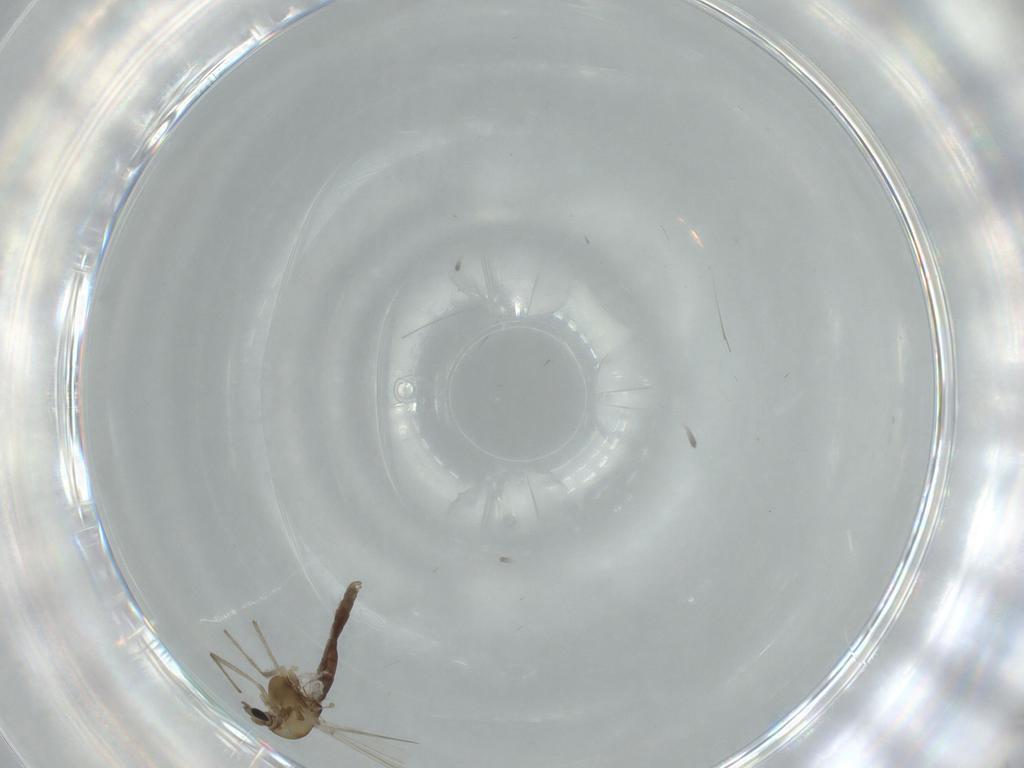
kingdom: Animalia
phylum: Arthropoda
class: Insecta
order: Diptera
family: Chironomidae
